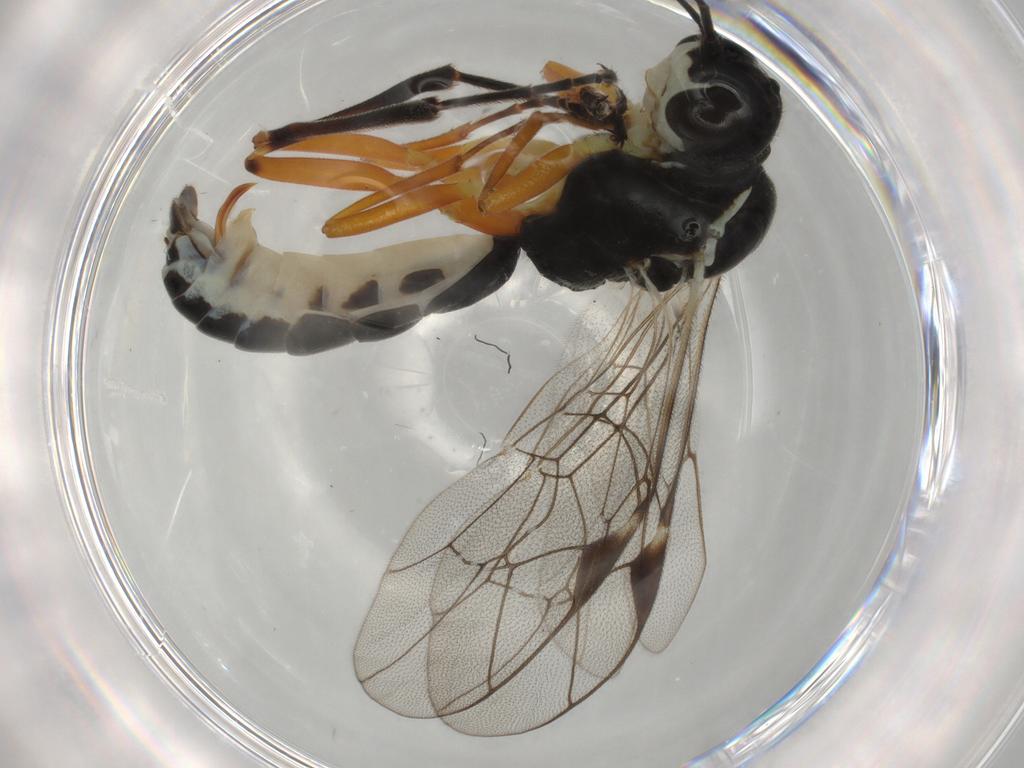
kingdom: Animalia
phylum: Arthropoda
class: Insecta
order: Hymenoptera
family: Ichneumonidae
